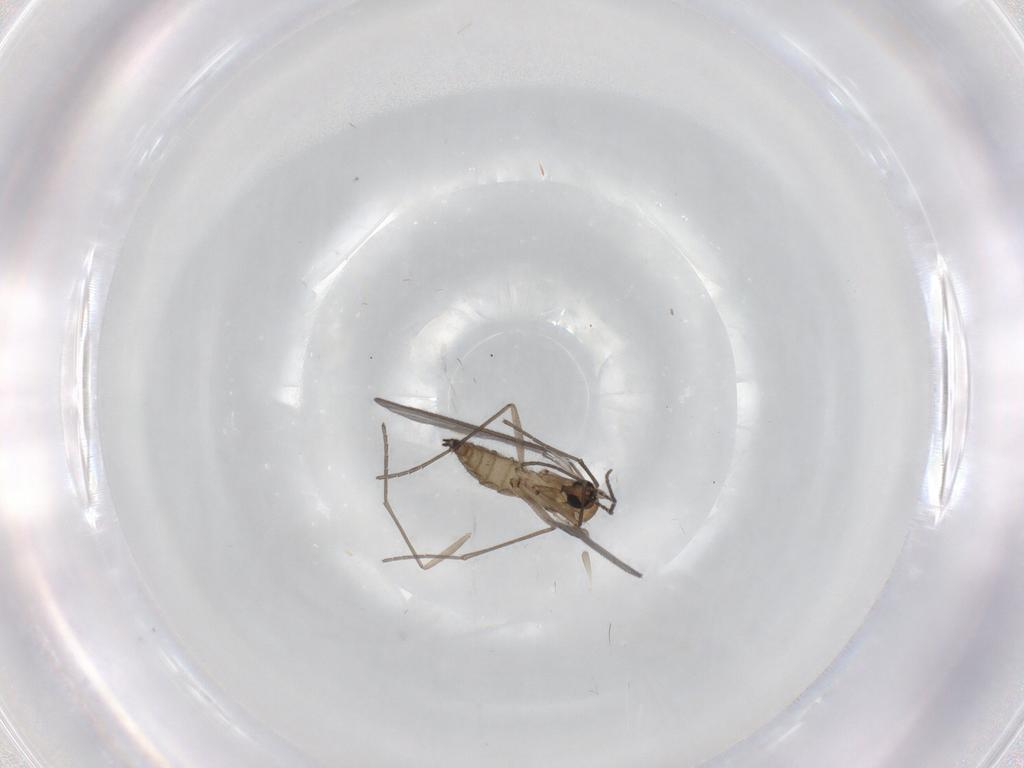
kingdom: Animalia
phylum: Arthropoda
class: Insecta
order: Diptera
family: Sciaridae
